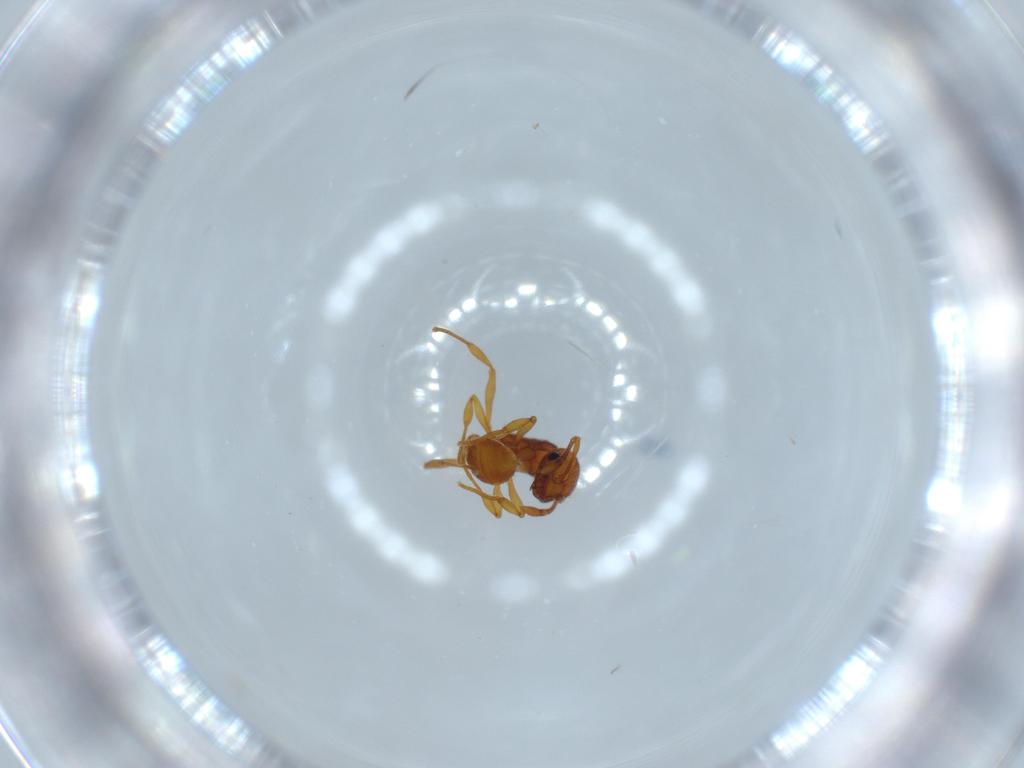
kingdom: Animalia
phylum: Arthropoda
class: Insecta
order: Hymenoptera
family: Formicidae
